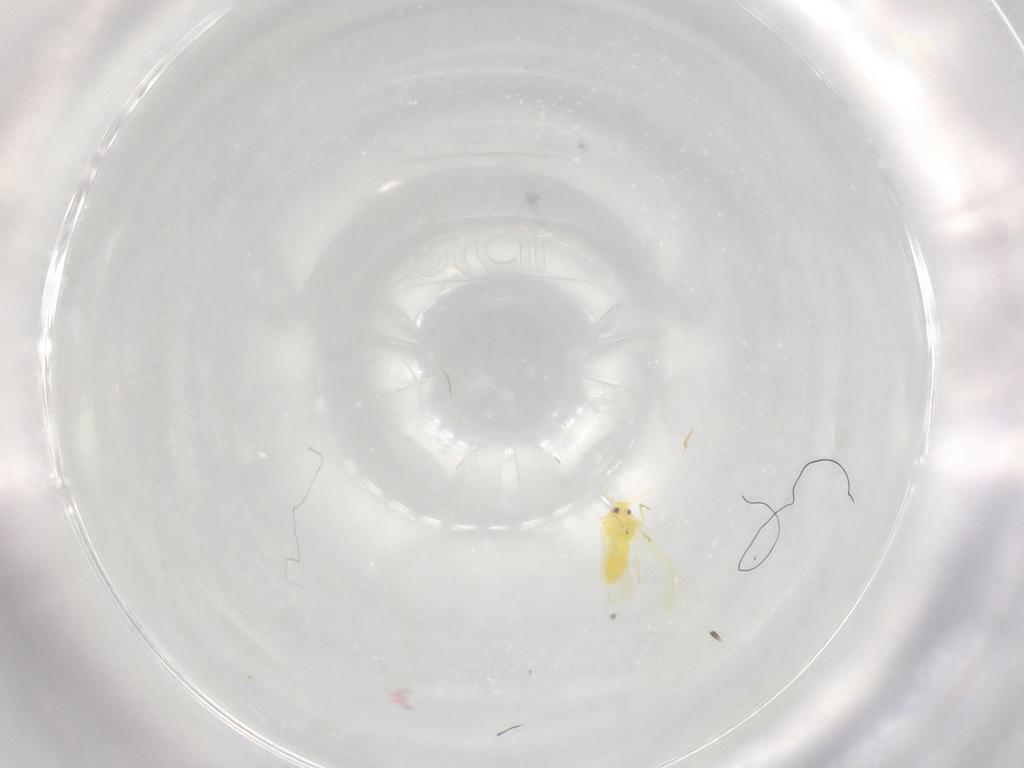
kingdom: Animalia
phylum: Arthropoda
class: Insecta
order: Hemiptera
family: Aleyrodidae
